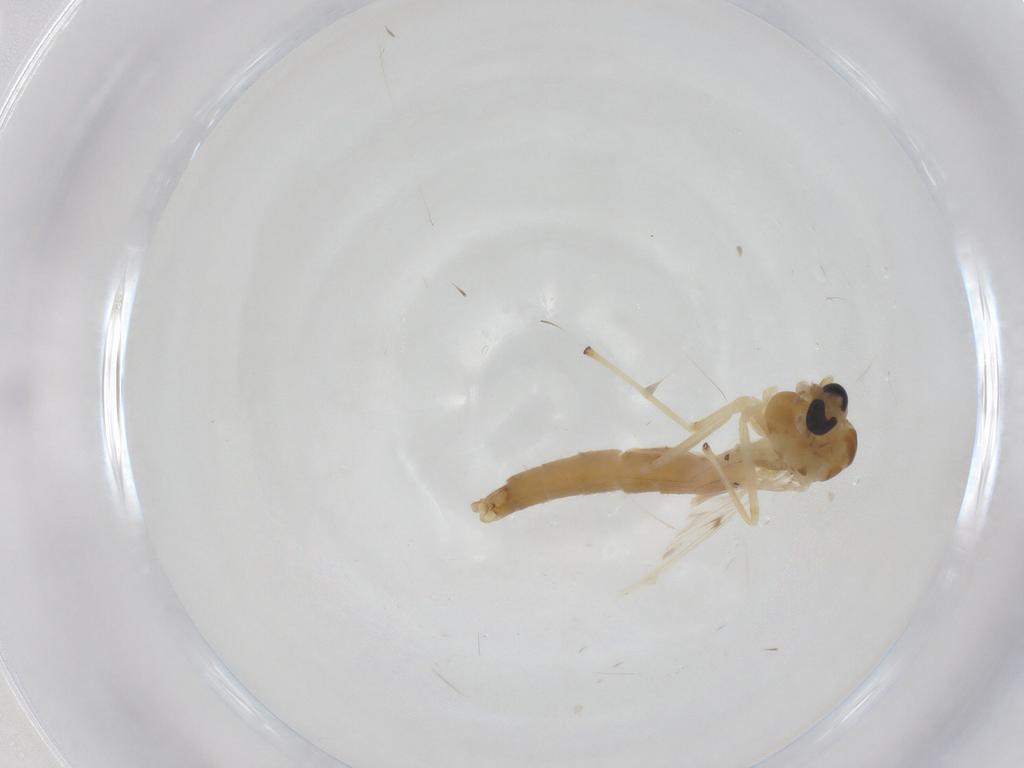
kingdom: Animalia
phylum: Arthropoda
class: Insecta
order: Diptera
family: Chironomidae
